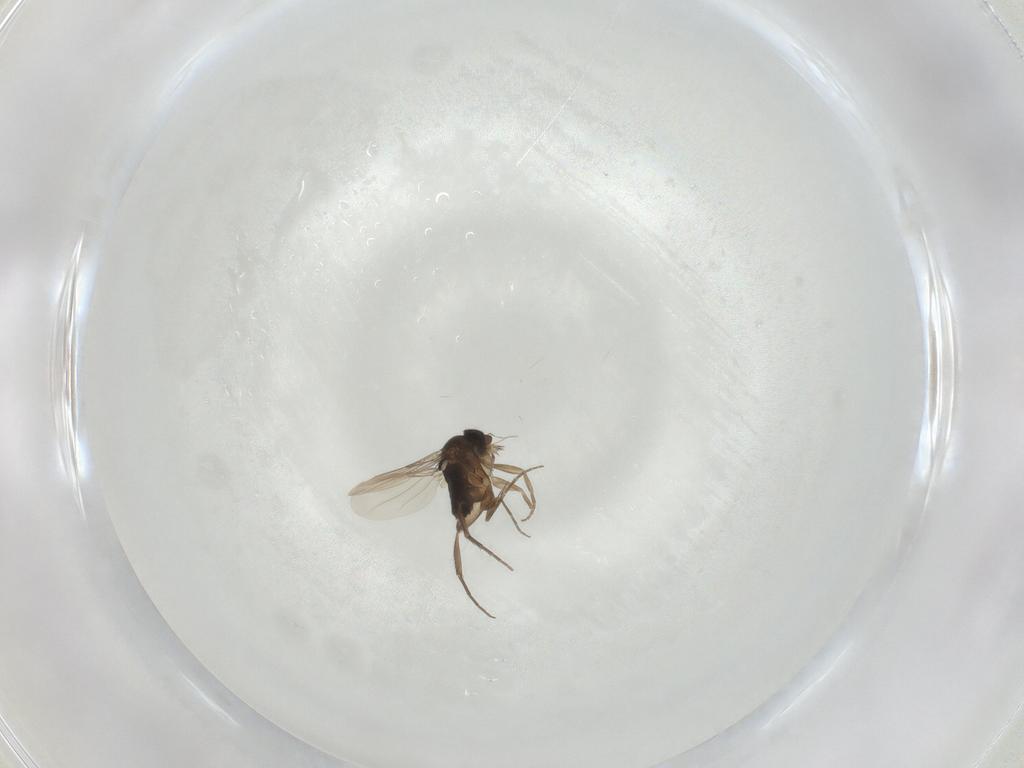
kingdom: Animalia
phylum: Arthropoda
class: Insecta
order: Diptera
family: Phoridae
